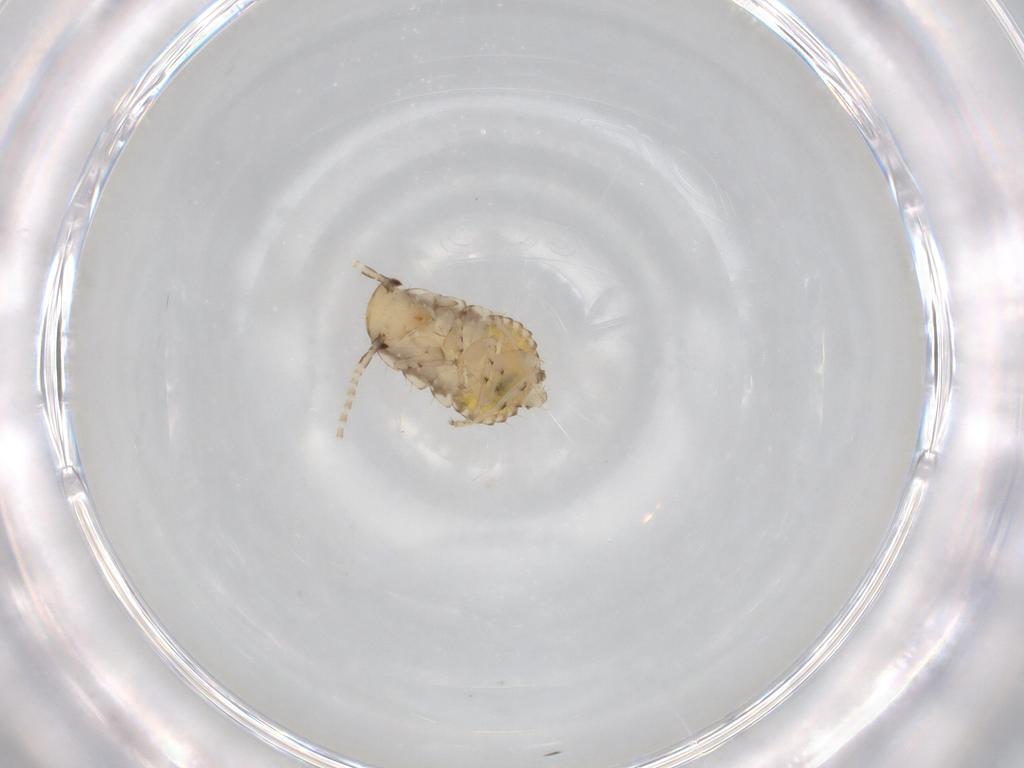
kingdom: Animalia
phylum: Arthropoda
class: Insecta
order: Blattodea
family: Ectobiidae
